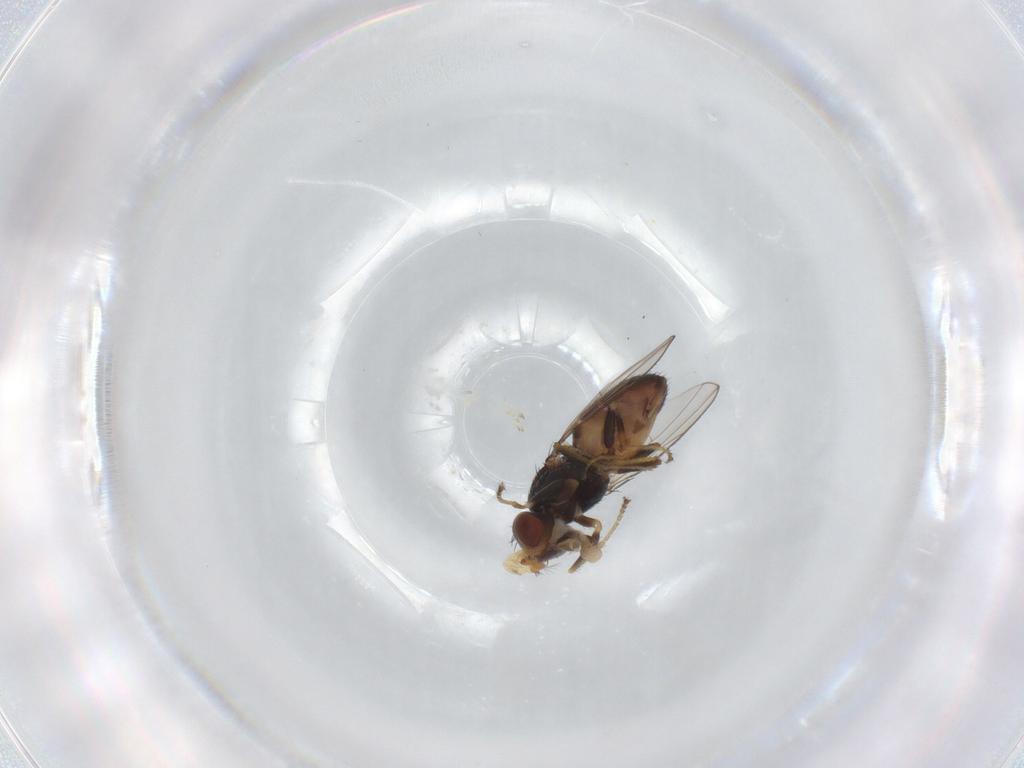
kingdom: Animalia
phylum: Arthropoda
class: Insecta
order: Diptera
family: Ephydridae
